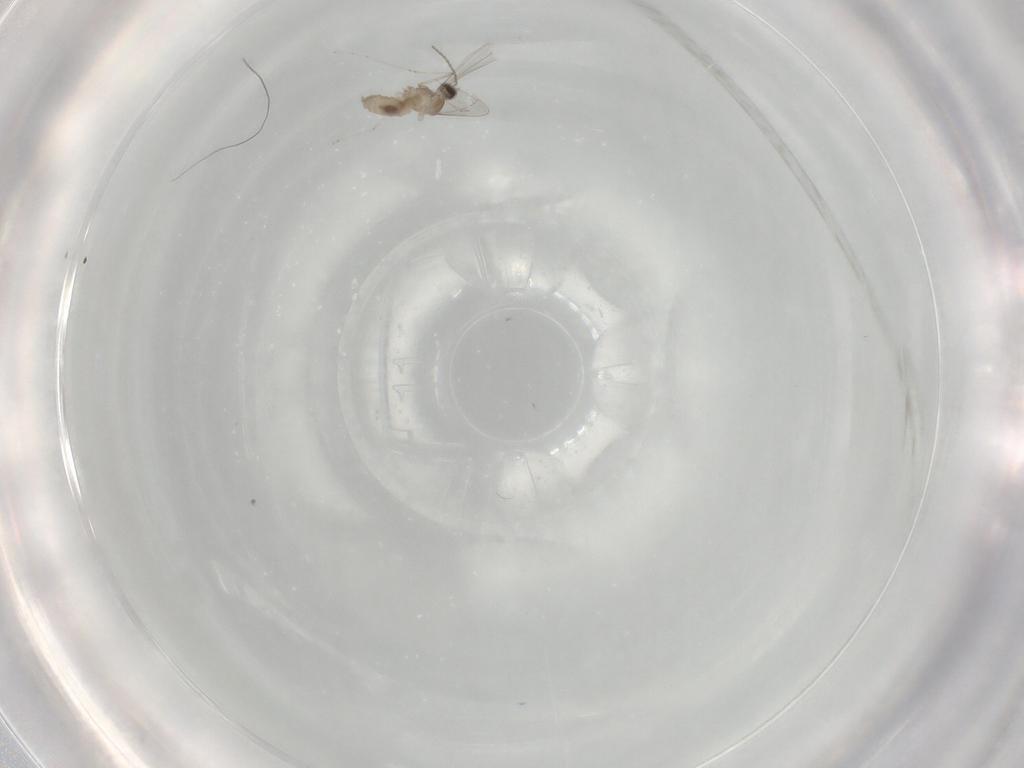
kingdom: Animalia
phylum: Arthropoda
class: Insecta
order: Diptera
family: Cecidomyiidae
